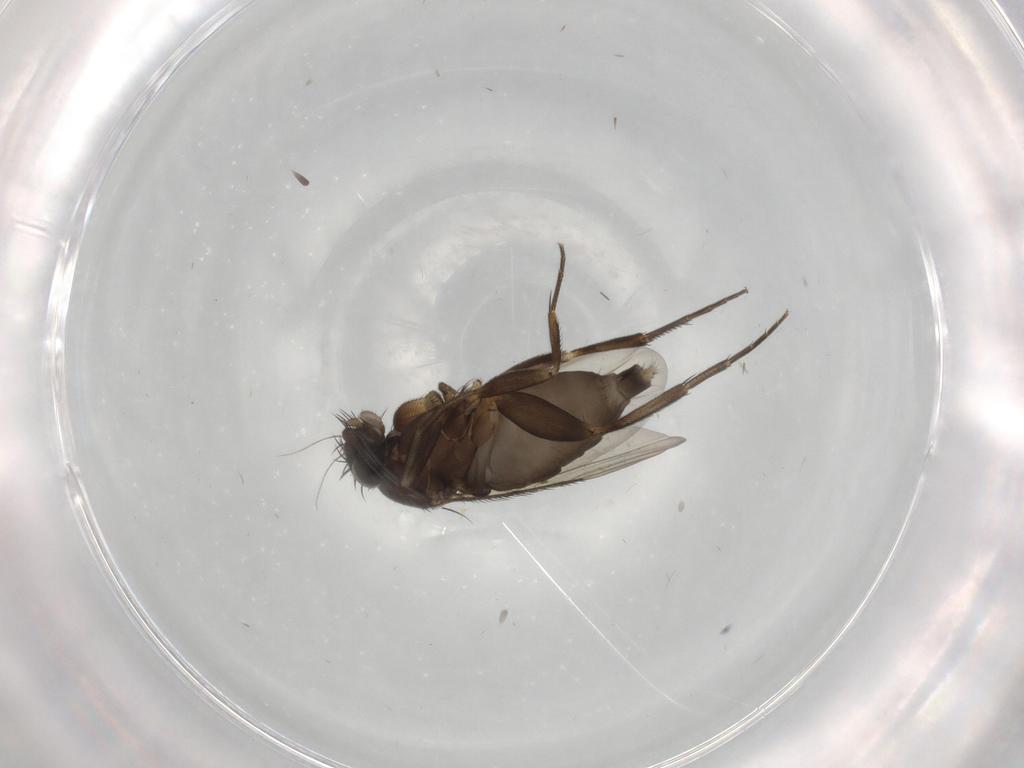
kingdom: Animalia
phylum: Arthropoda
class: Insecta
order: Diptera
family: Phoridae
